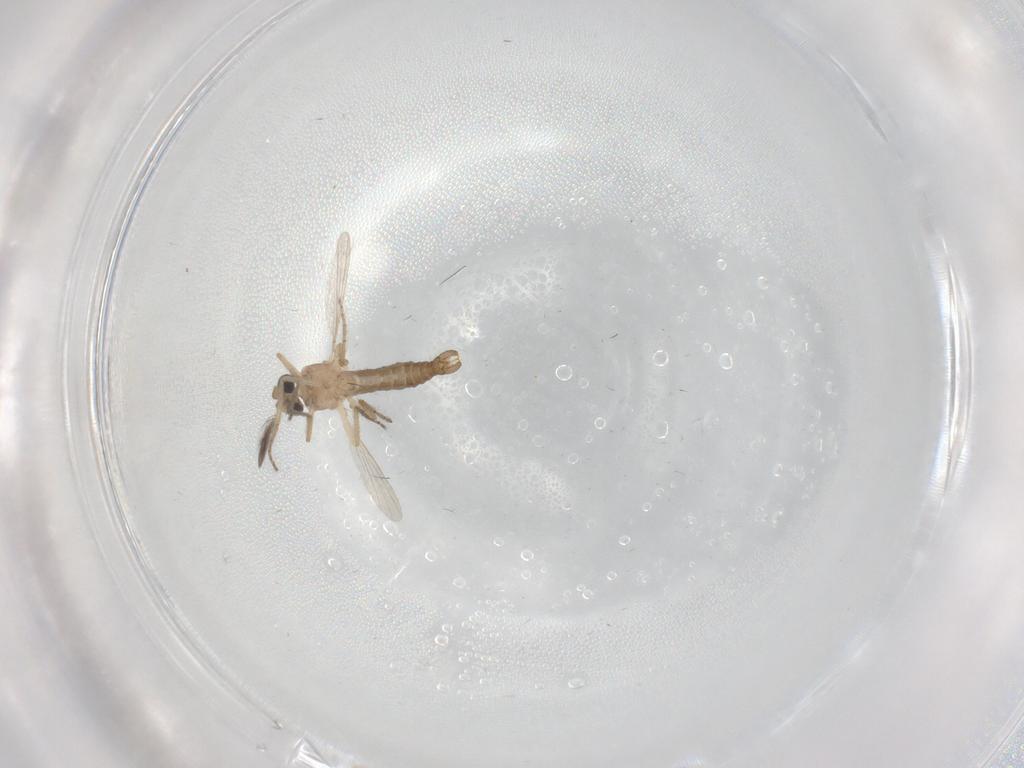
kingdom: Animalia
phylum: Arthropoda
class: Insecta
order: Diptera
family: Ceratopogonidae
